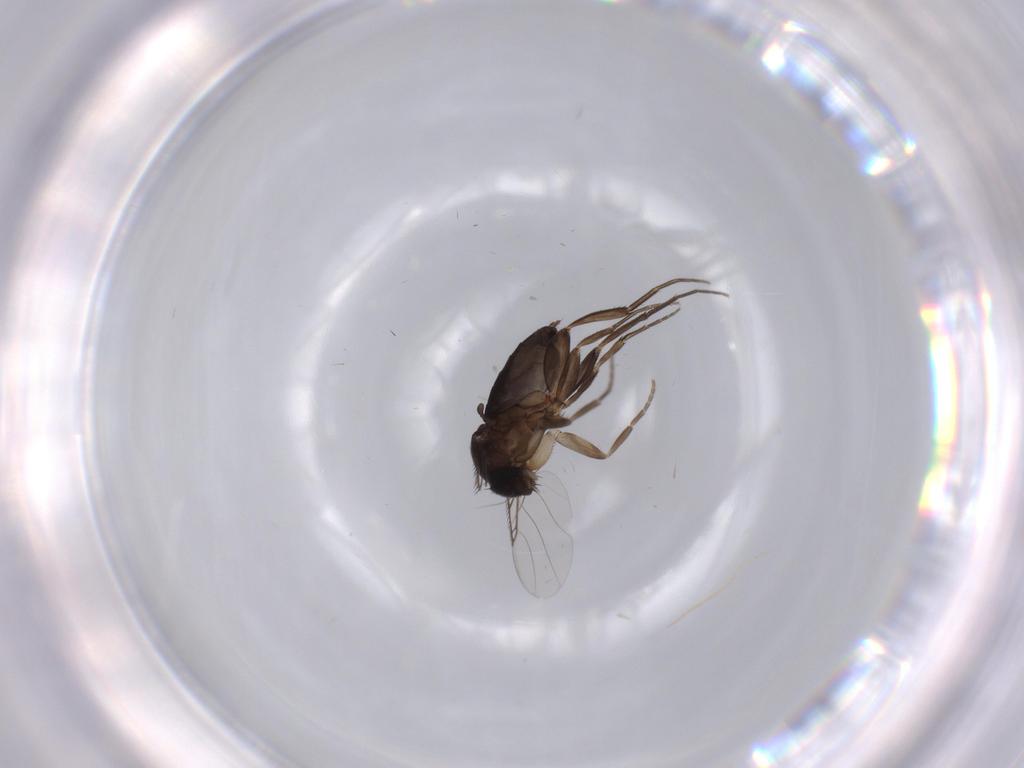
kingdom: Animalia
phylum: Arthropoda
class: Insecta
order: Diptera
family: Phoridae
